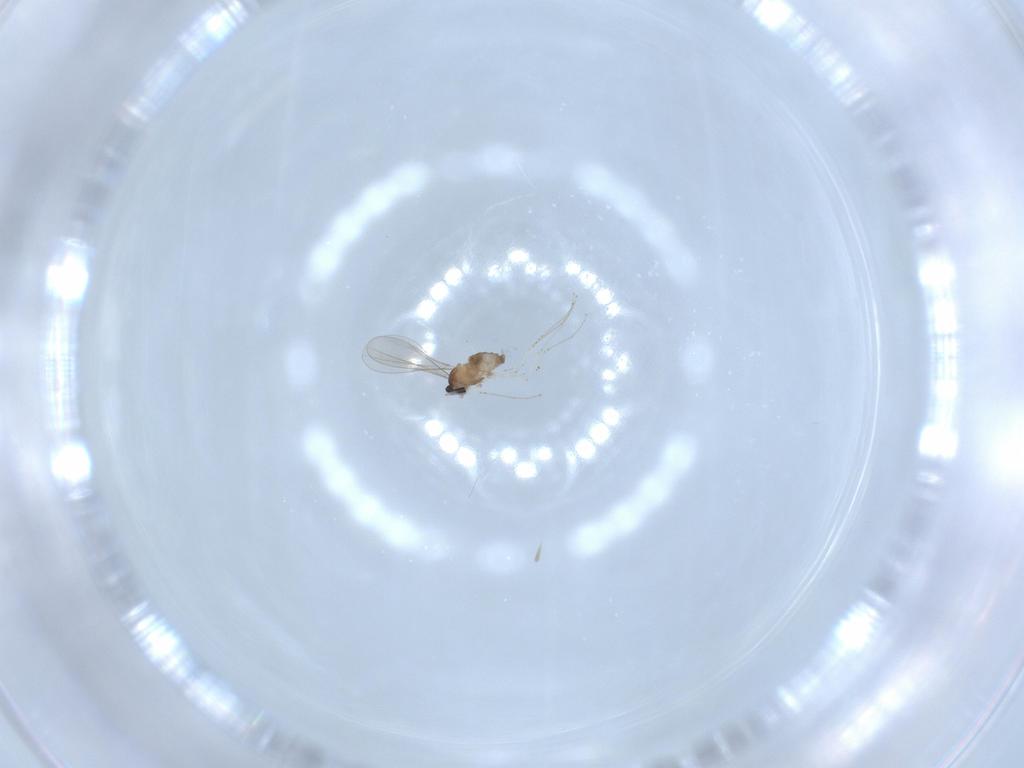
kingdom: Animalia
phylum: Arthropoda
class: Insecta
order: Diptera
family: Cecidomyiidae
